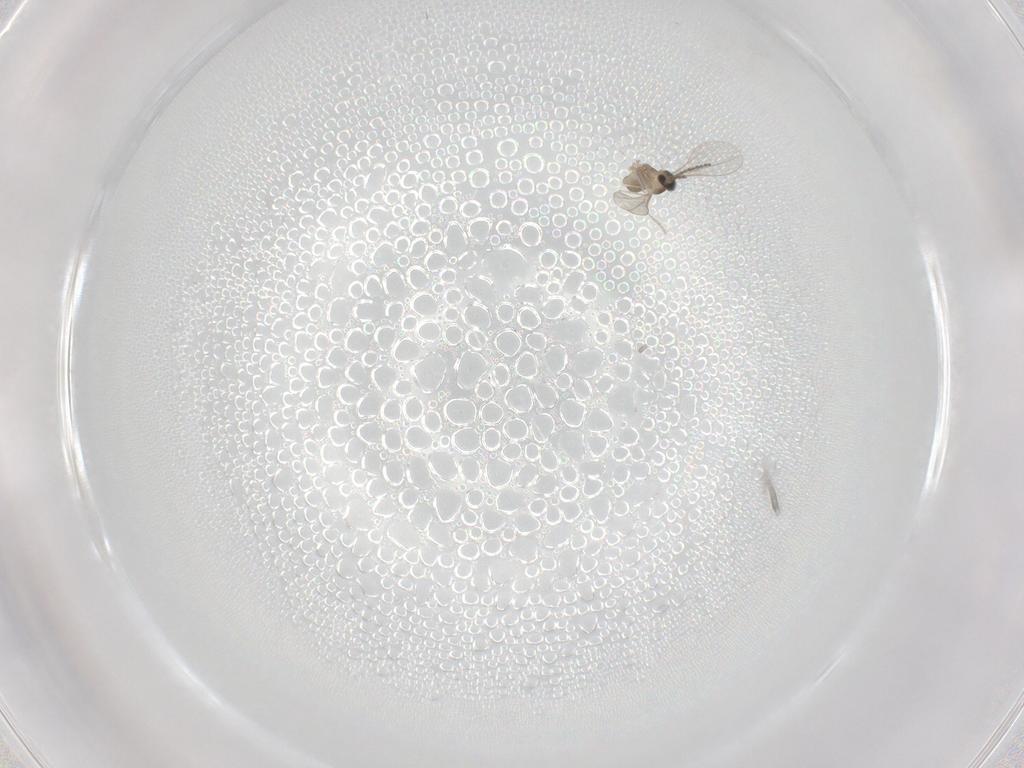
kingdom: Animalia
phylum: Arthropoda
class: Insecta
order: Diptera
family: Cecidomyiidae
